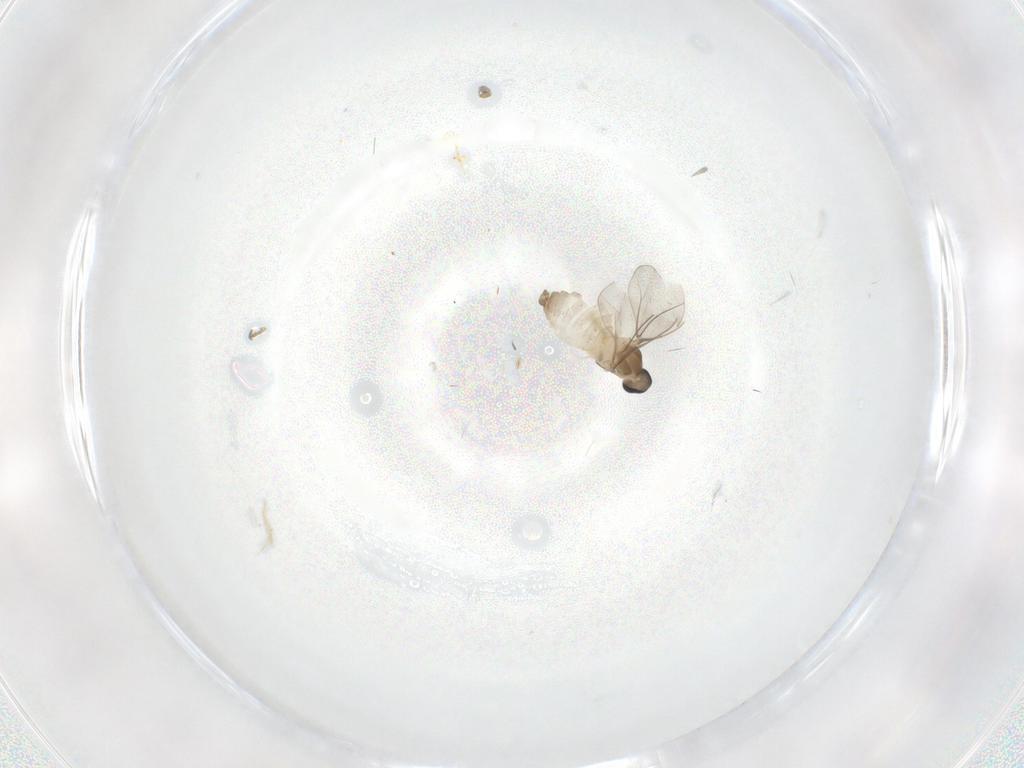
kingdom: Animalia
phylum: Arthropoda
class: Insecta
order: Diptera
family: Cecidomyiidae
